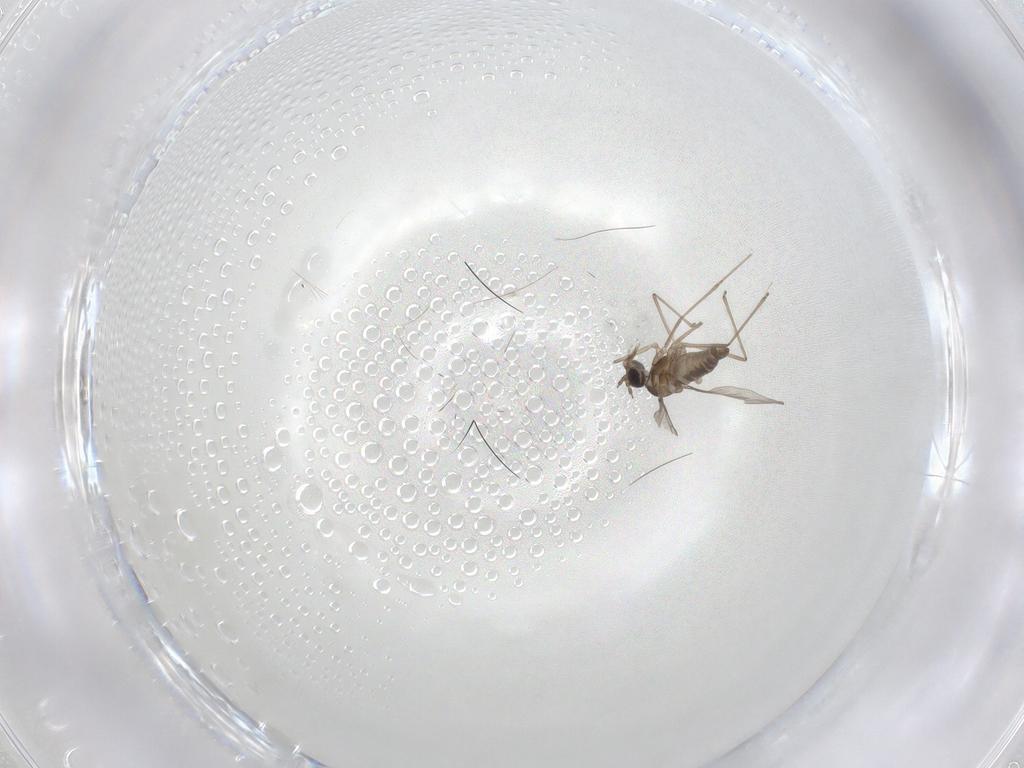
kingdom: Animalia
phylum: Arthropoda
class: Insecta
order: Diptera
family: Cecidomyiidae
